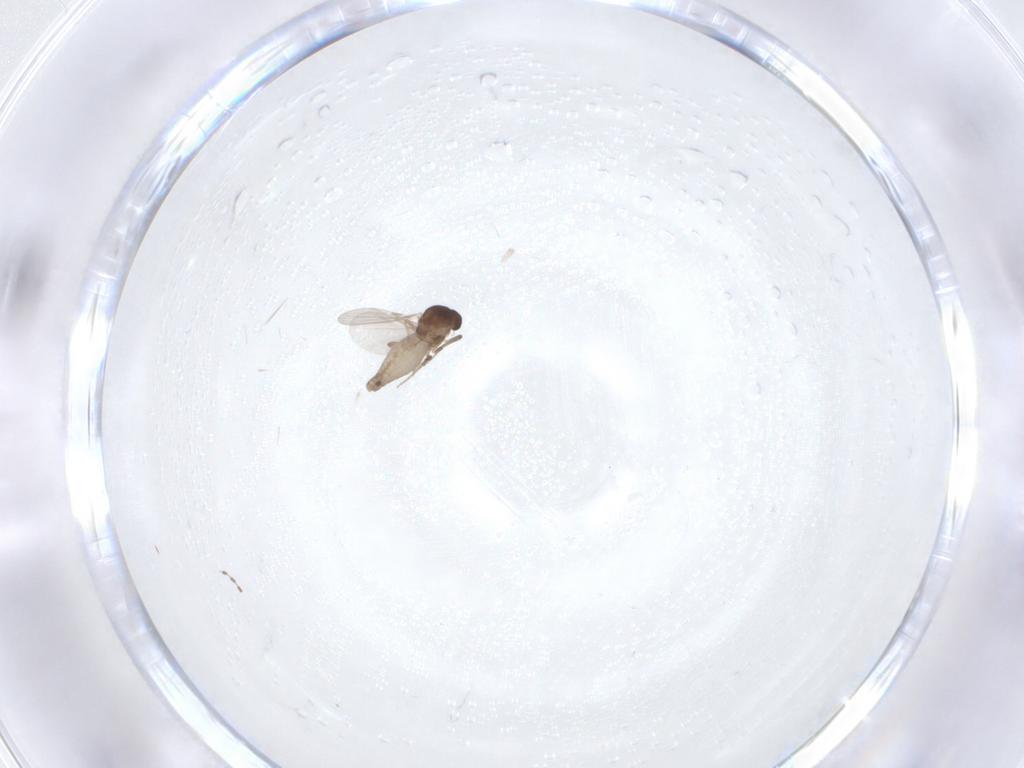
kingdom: Animalia
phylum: Arthropoda
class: Insecta
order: Diptera
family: Cecidomyiidae
